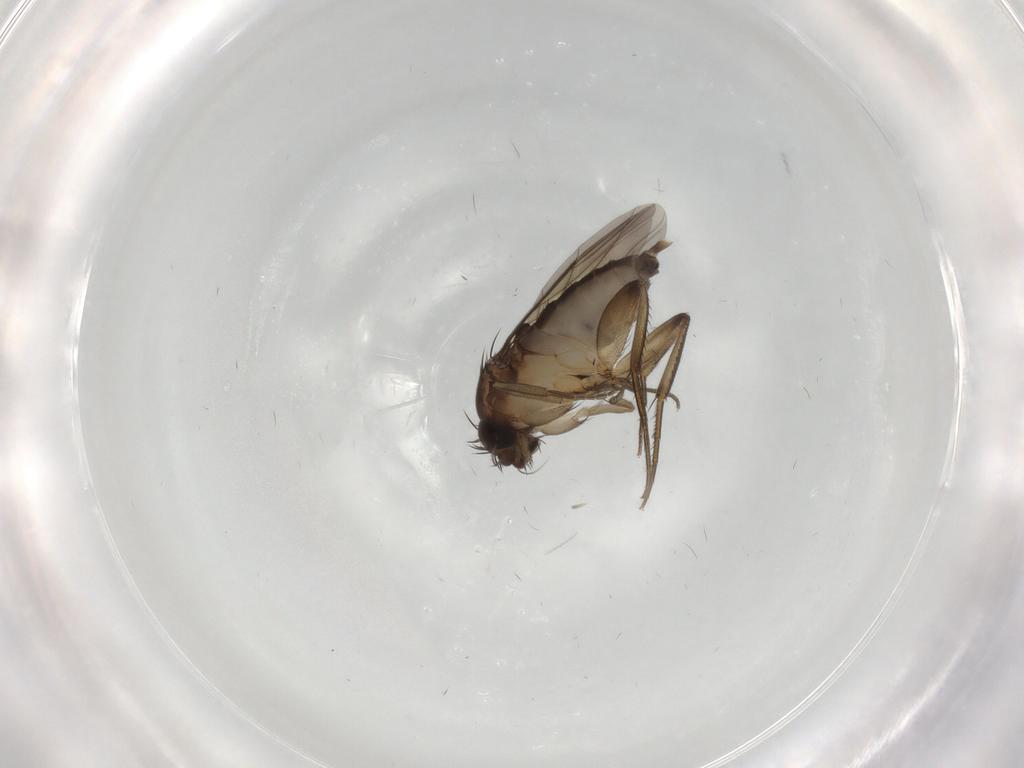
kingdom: Animalia
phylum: Arthropoda
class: Insecta
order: Diptera
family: Phoridae
